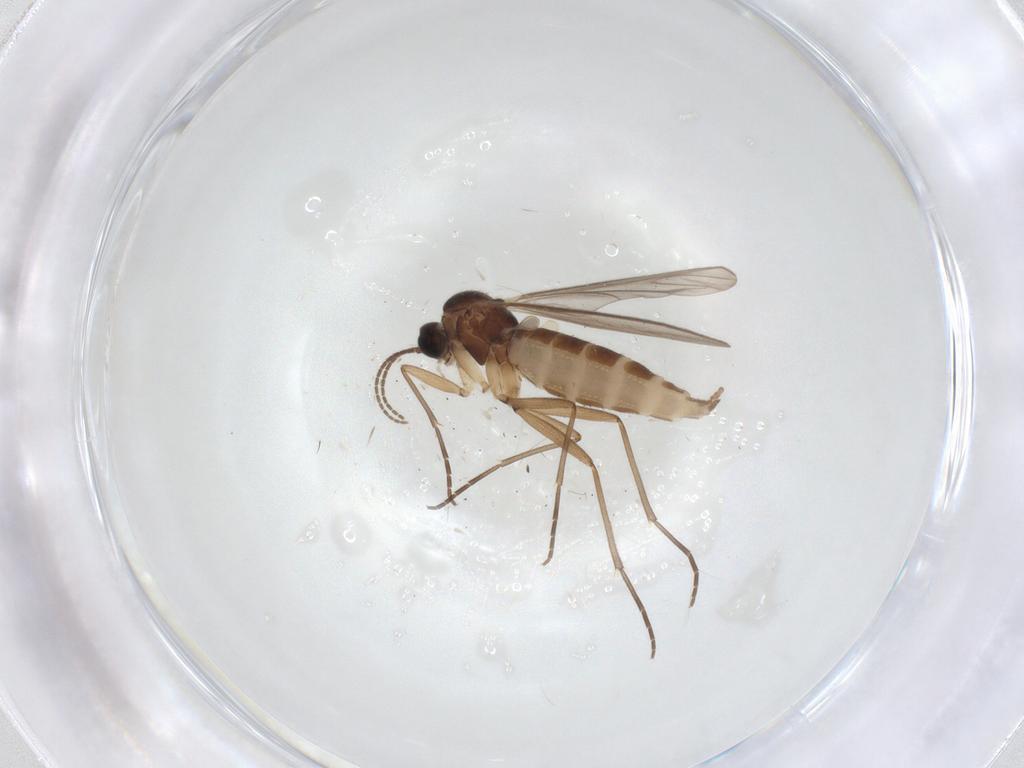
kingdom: Animalia
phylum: Arthropoda
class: Insecta
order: Diptera
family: Sciaridae
